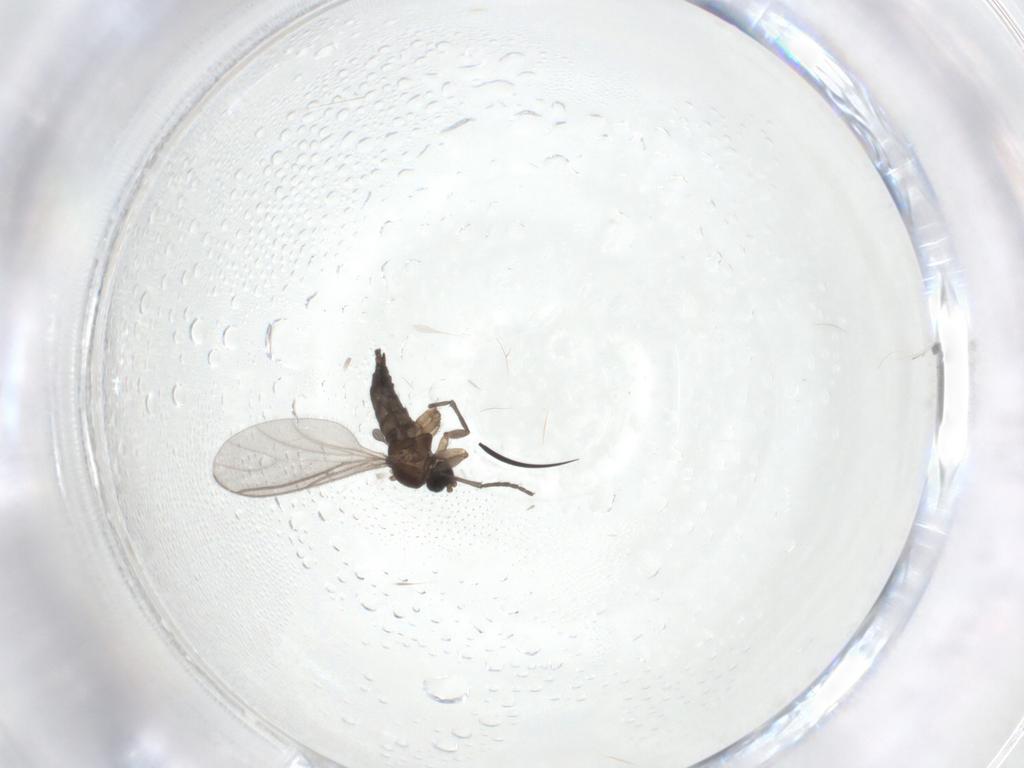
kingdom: Animalia
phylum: Arthropoda
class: Insecta
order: Diptera
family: Sciaridae
